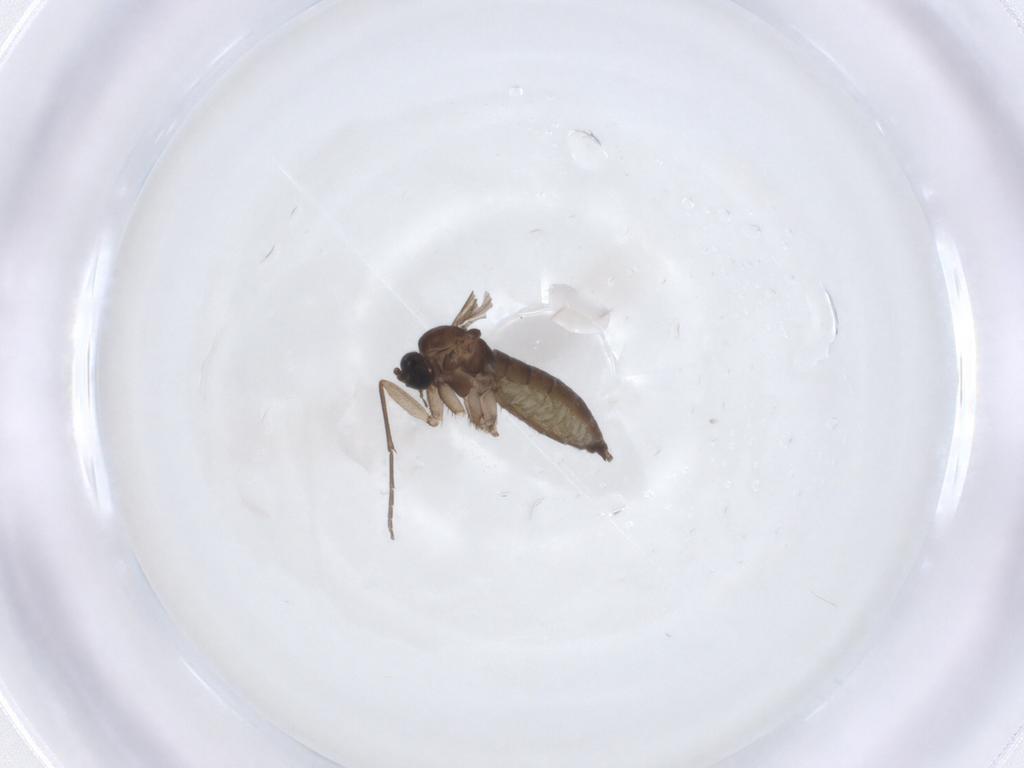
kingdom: Animalia
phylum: Arthropoda
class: Insecta
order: Diptera
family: Sciaridae
